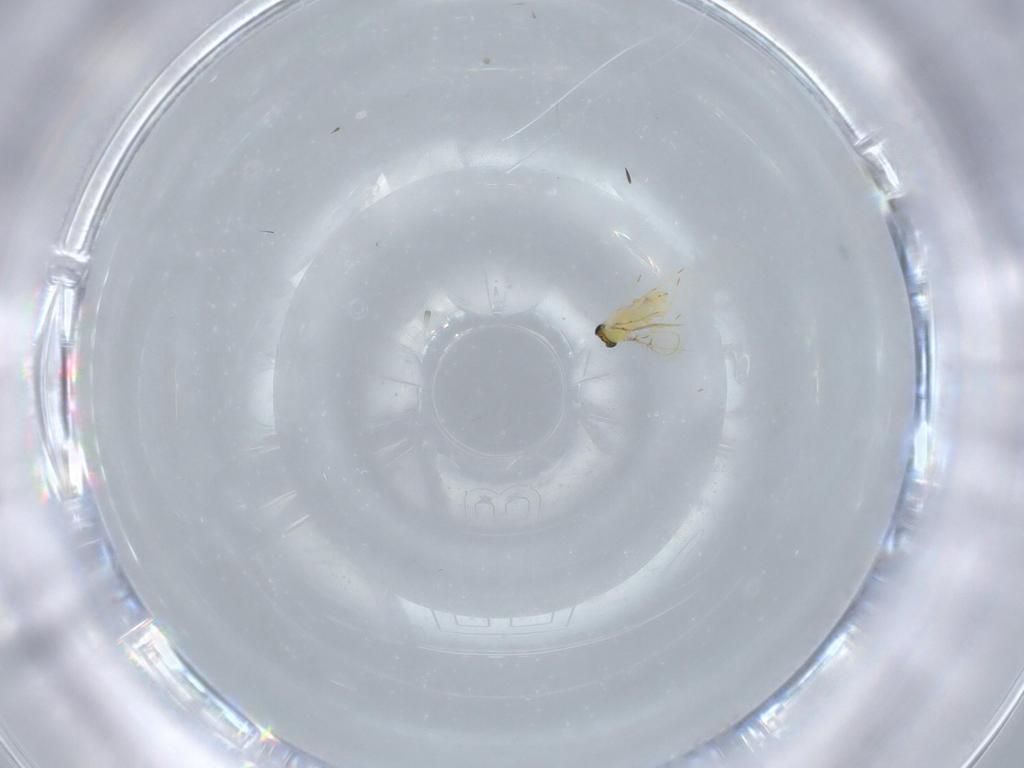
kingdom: Animalia
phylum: Arthropoda
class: Insecta
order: Hymenoptera
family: Trichogrammatidae
